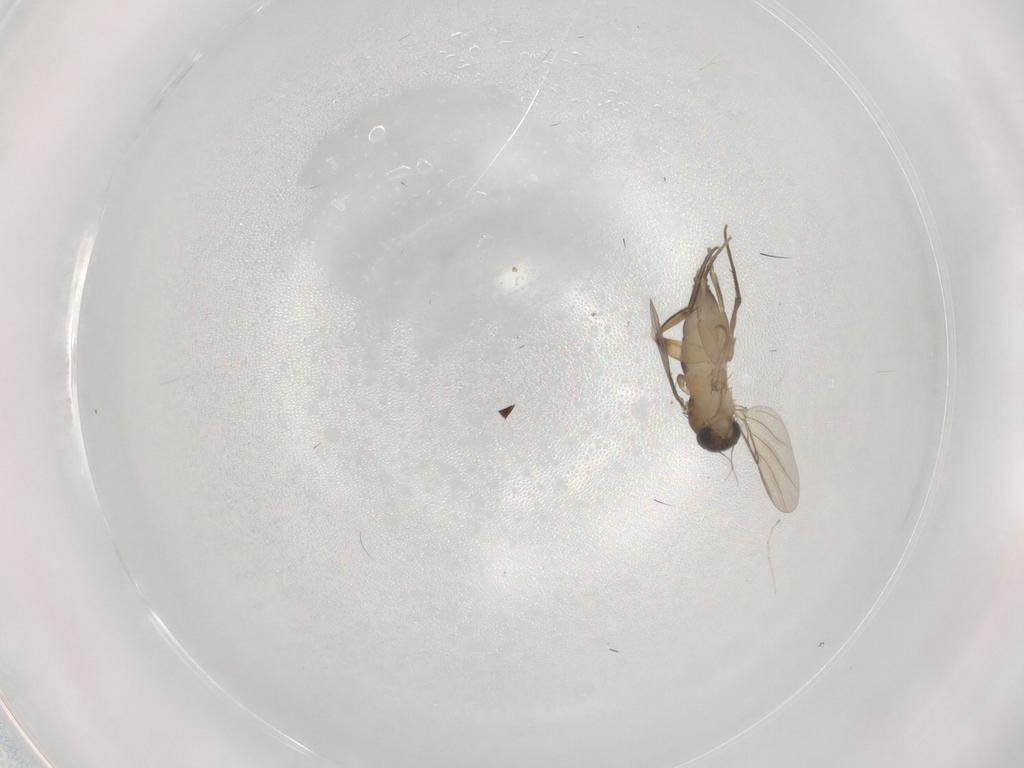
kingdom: Animalia
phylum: Arthropoda
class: Insecta
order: Diptera
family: Phoridae
